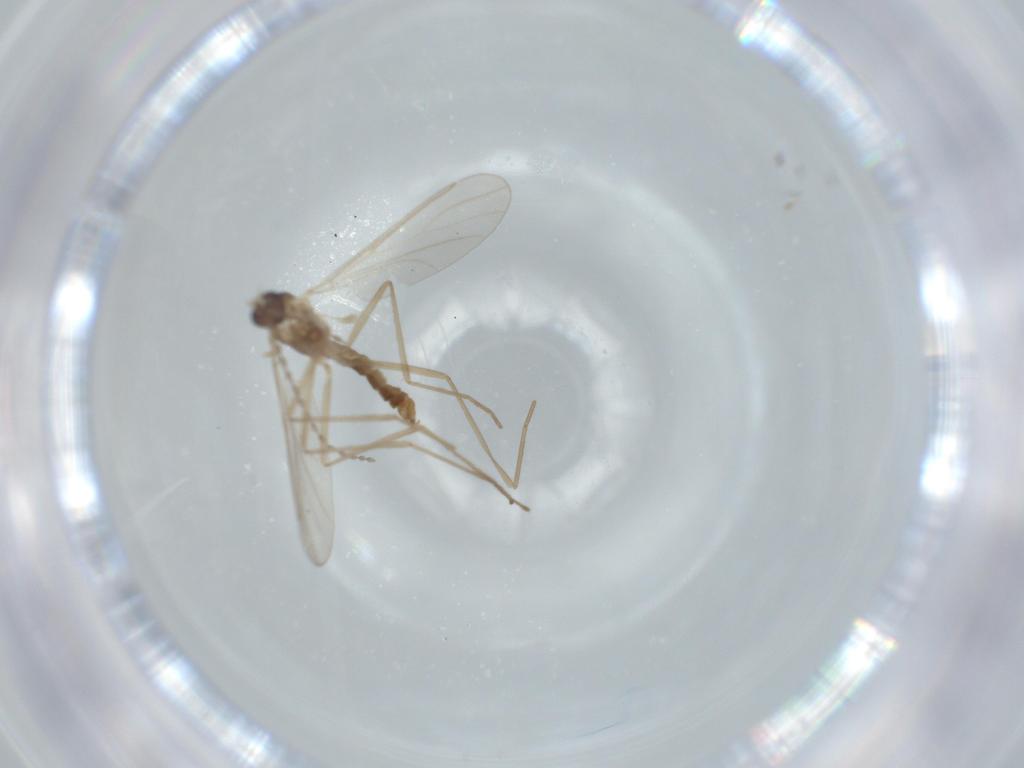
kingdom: Animalia
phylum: Arthropoda
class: Insecta
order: Diptera
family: Cecidomyiidae
